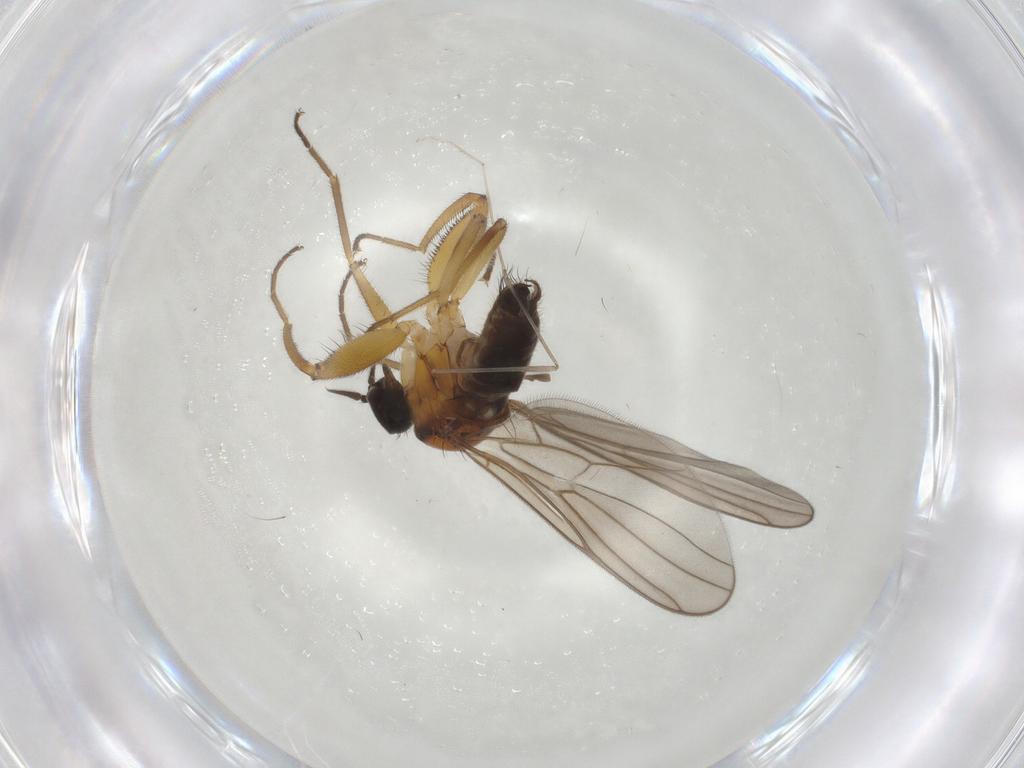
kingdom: Animalia
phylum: Arthropoda
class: Insecta
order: Diptera
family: Hybotidae
